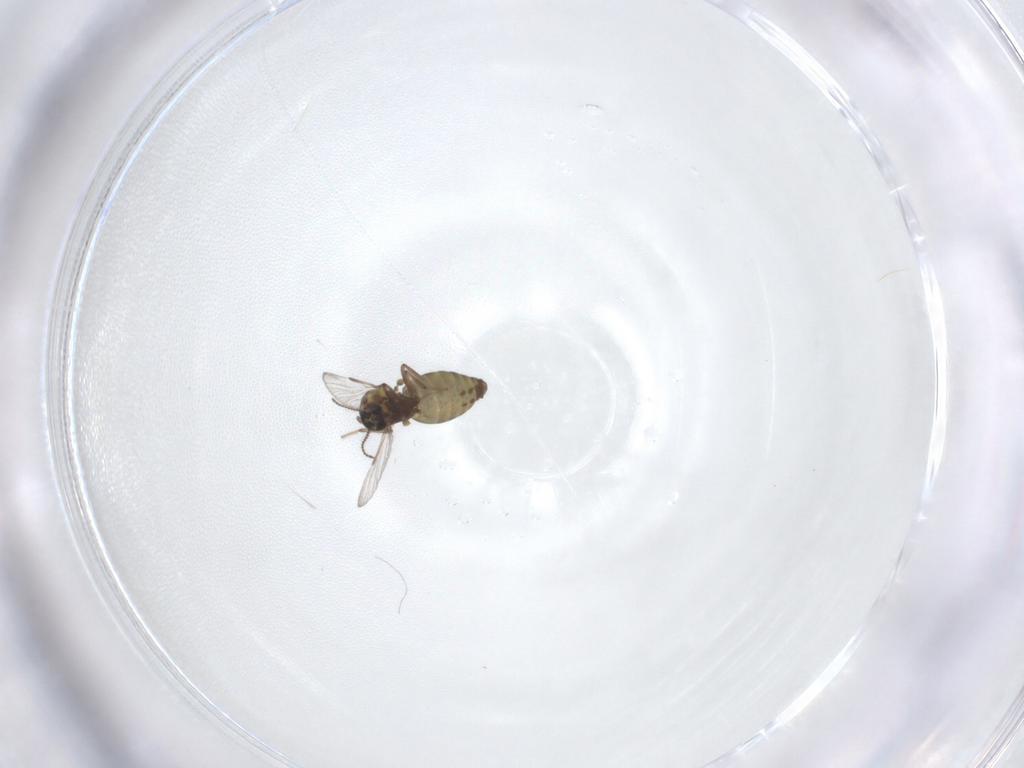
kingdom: Animalia
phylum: Arthropoda
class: Insecta
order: Diptera
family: Ceratopogonidae
